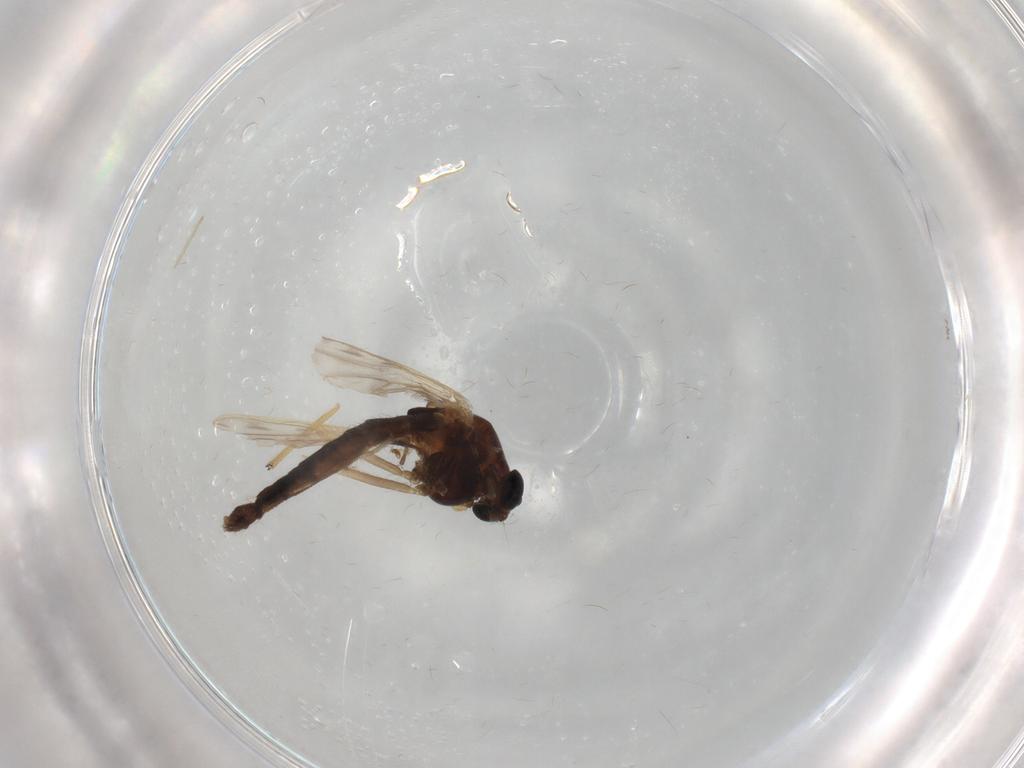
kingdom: Animalia
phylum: Arthropoda
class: Insecta
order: Diptera
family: Chironomidae
